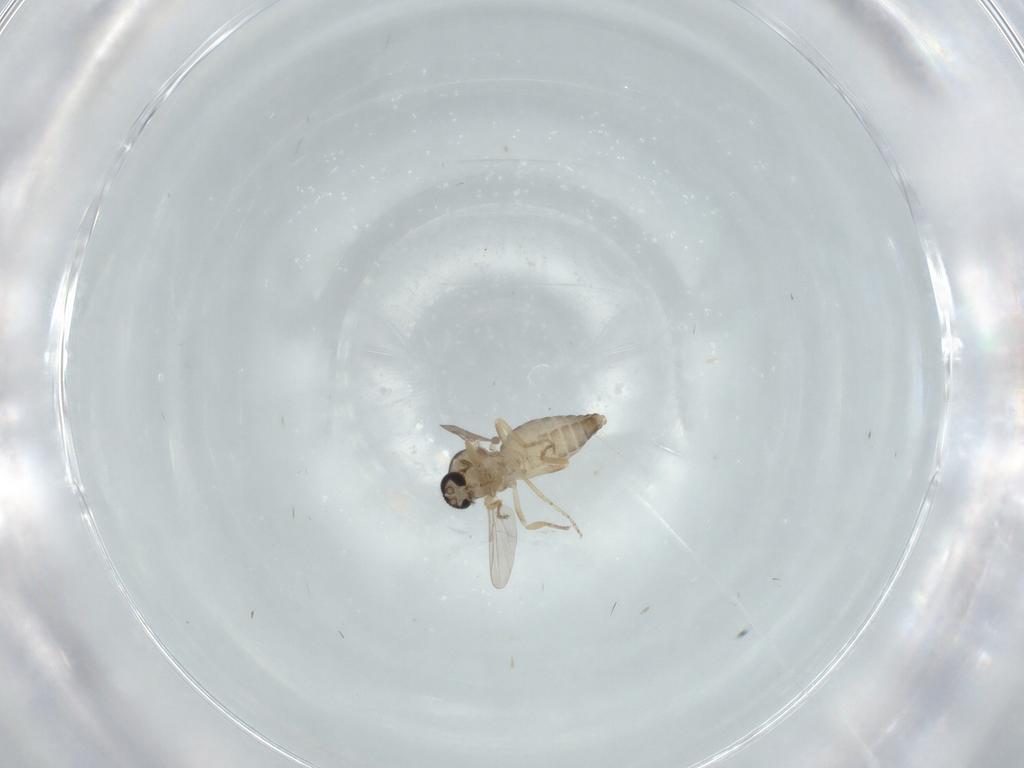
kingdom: Animalia
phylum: Arthropoda
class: Insecta
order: Diptera
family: Ceratopogonidae
